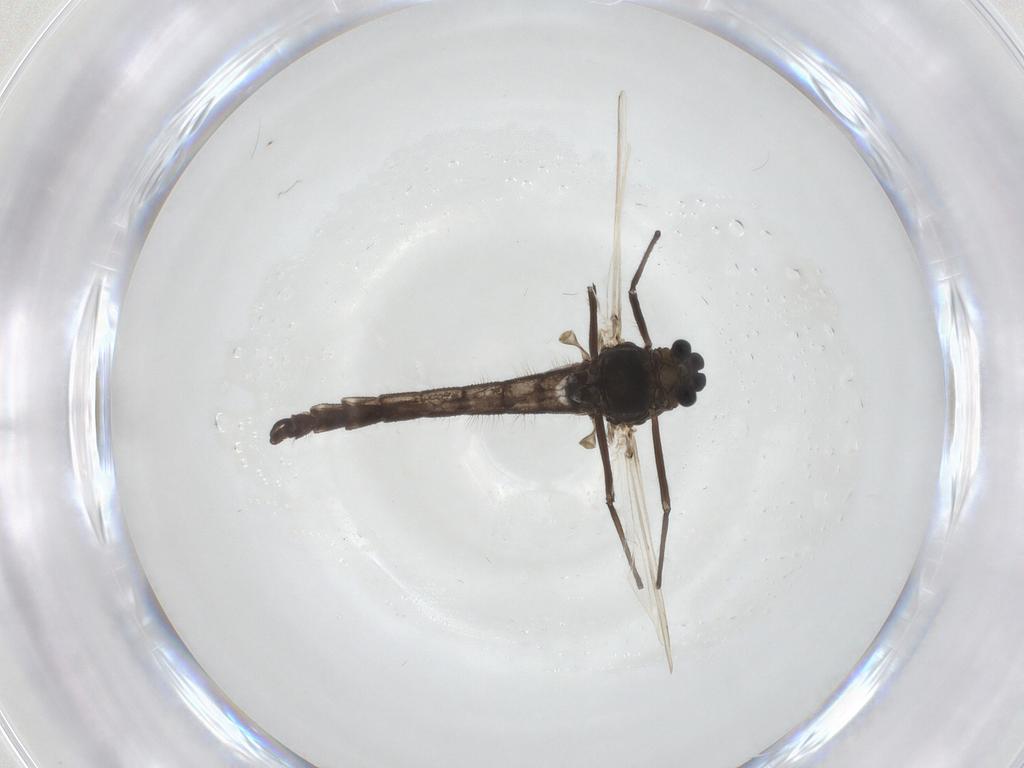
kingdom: Animalia
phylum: Arthropoda
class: Insecta
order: Diptera
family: Chironomidae
